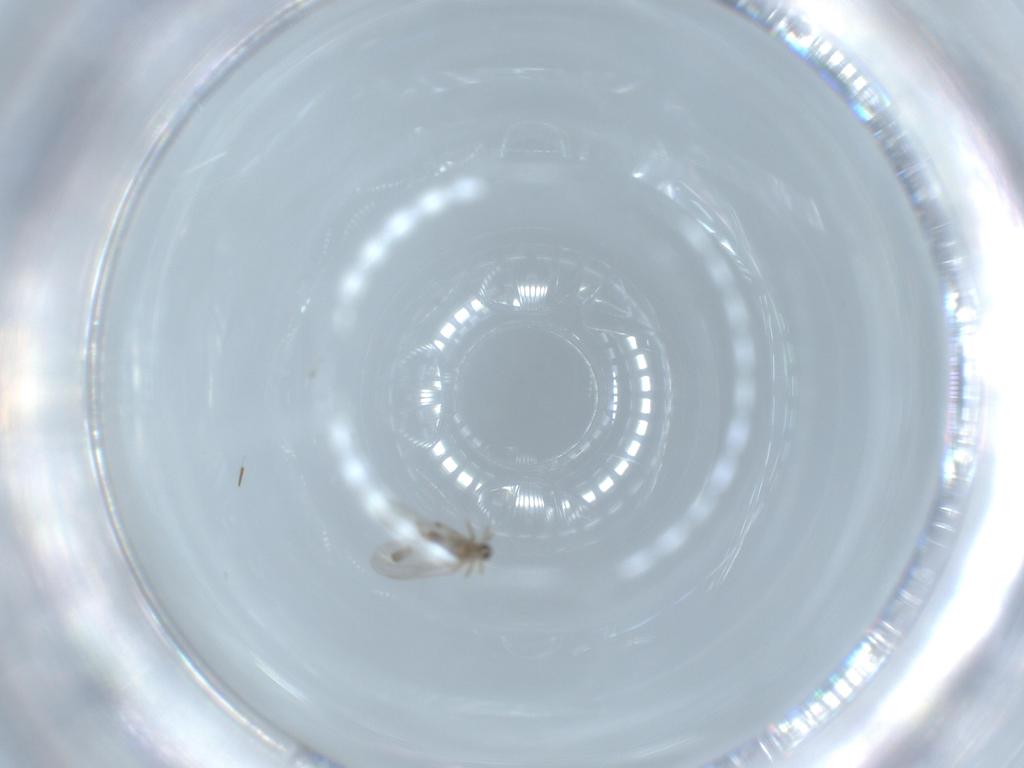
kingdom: Animalia
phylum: Arthropoda
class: Insecta
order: Diptera
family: Cecidomyiidae
